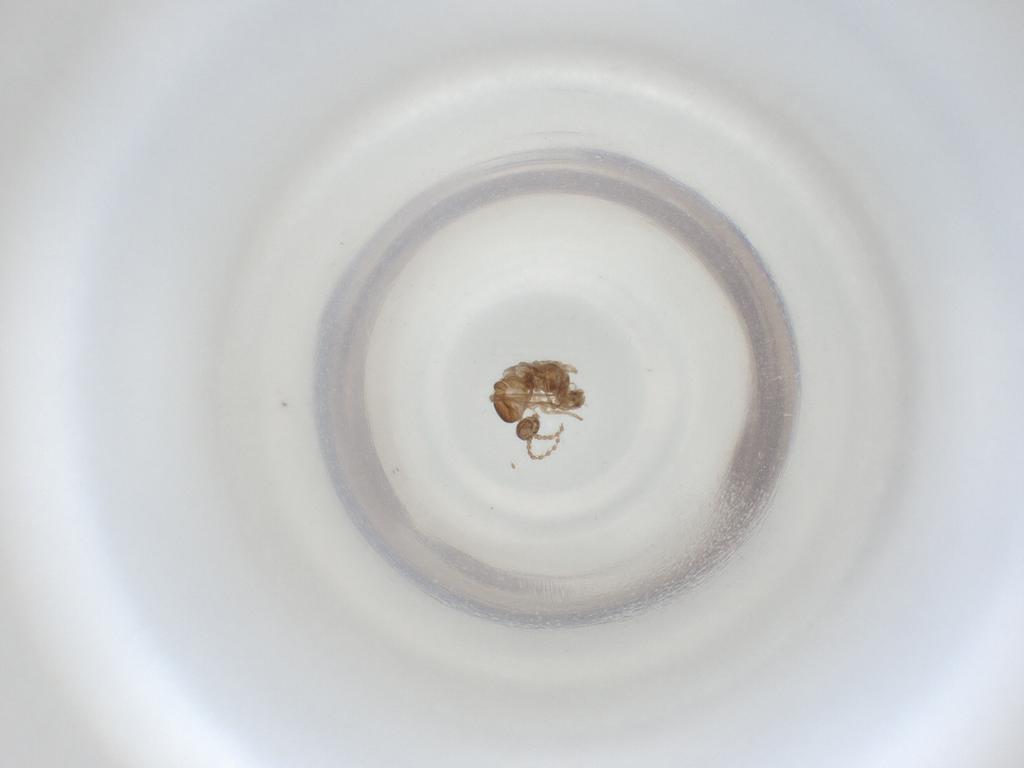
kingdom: Animalia
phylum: Arthropoda
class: Insecta
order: Diptera
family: Cecidomyiidae
